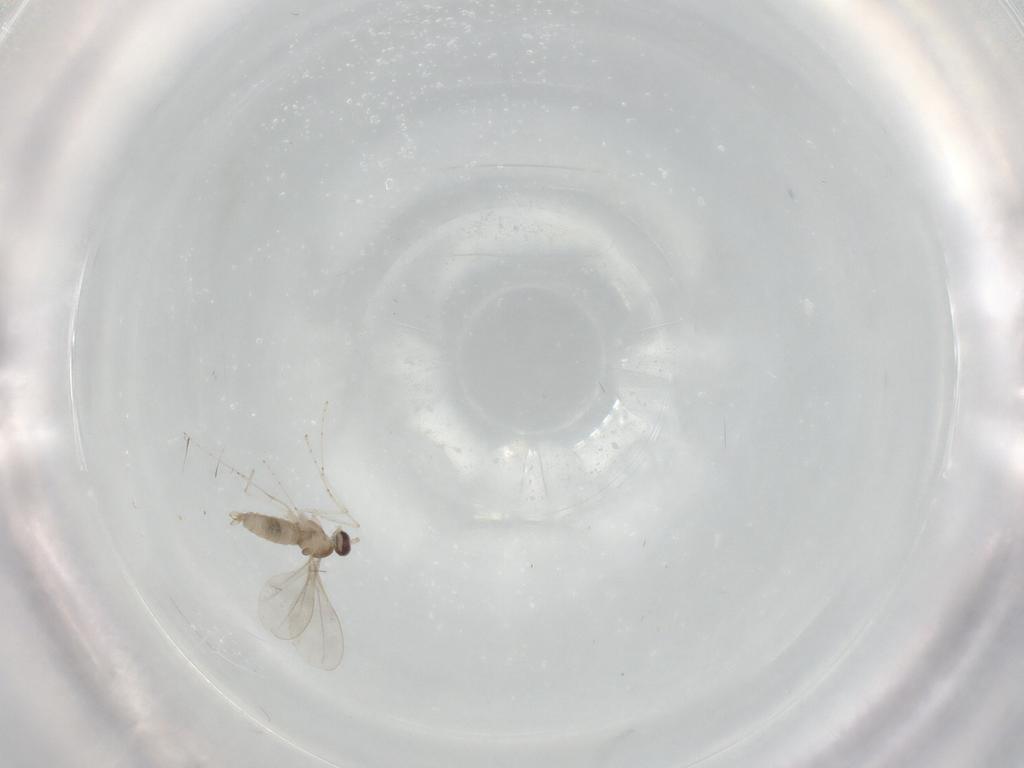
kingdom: Animalia
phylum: Arthropoda
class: Insecta
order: Diptera
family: Cecidomyiidae
